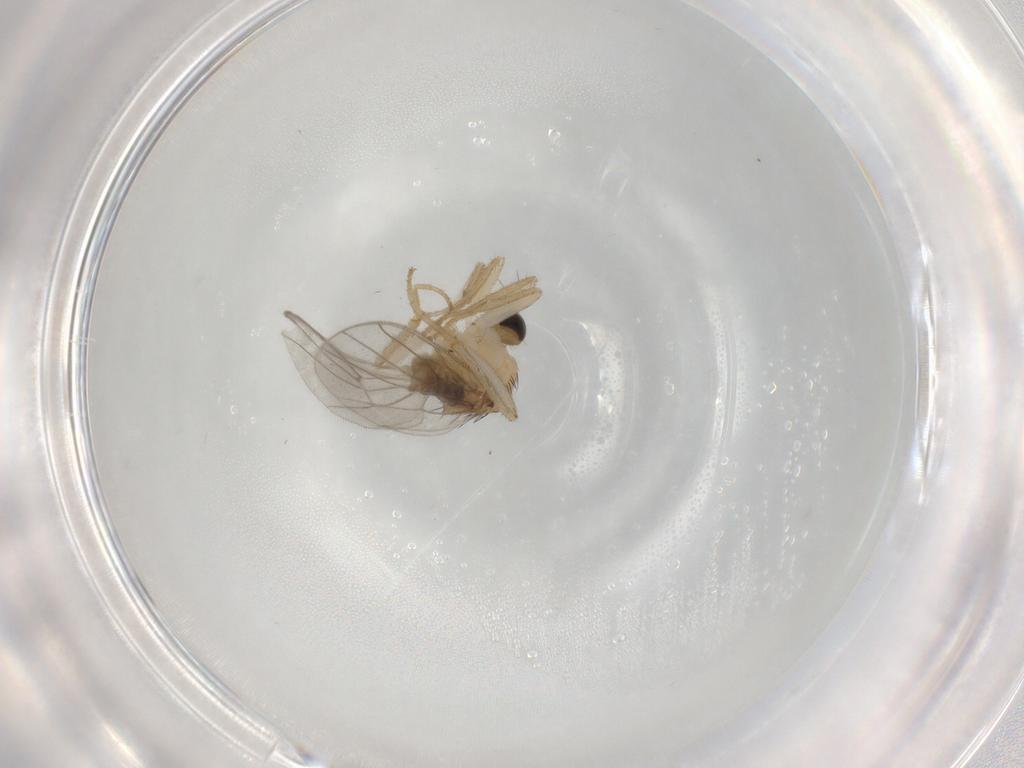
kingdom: Animalia
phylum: Arthropoda
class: Insecta
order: Diptera
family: Hybotidae
